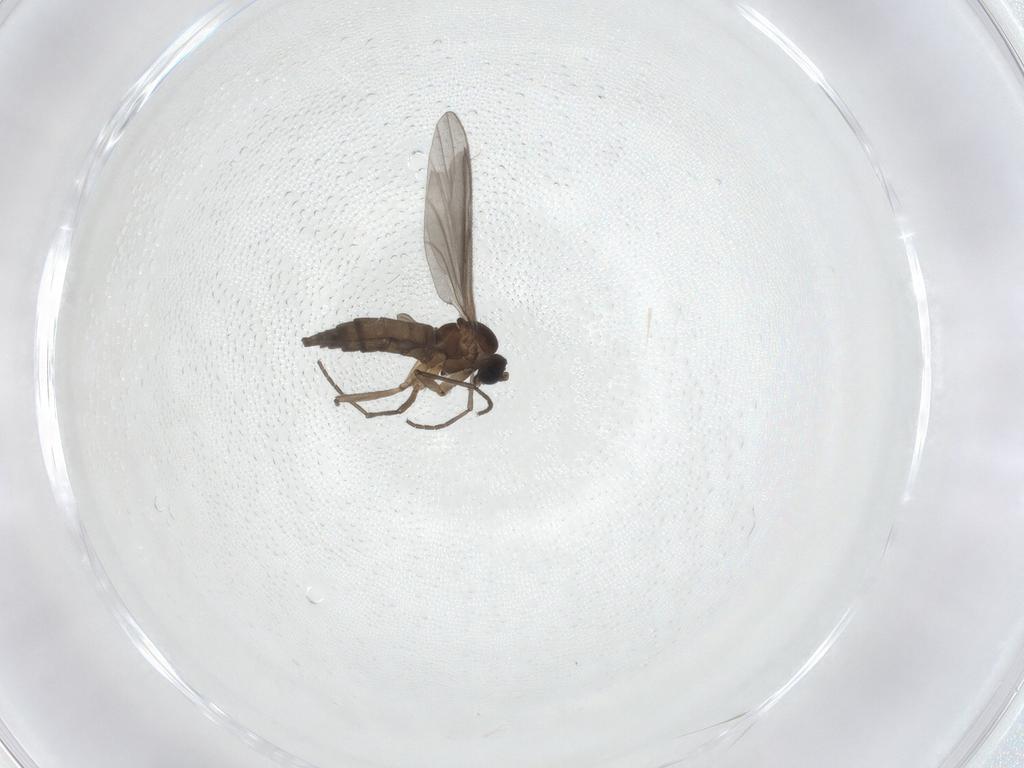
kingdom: Animalia
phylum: Arthropoda
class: Insecta
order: Diptera
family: Sciaridae
